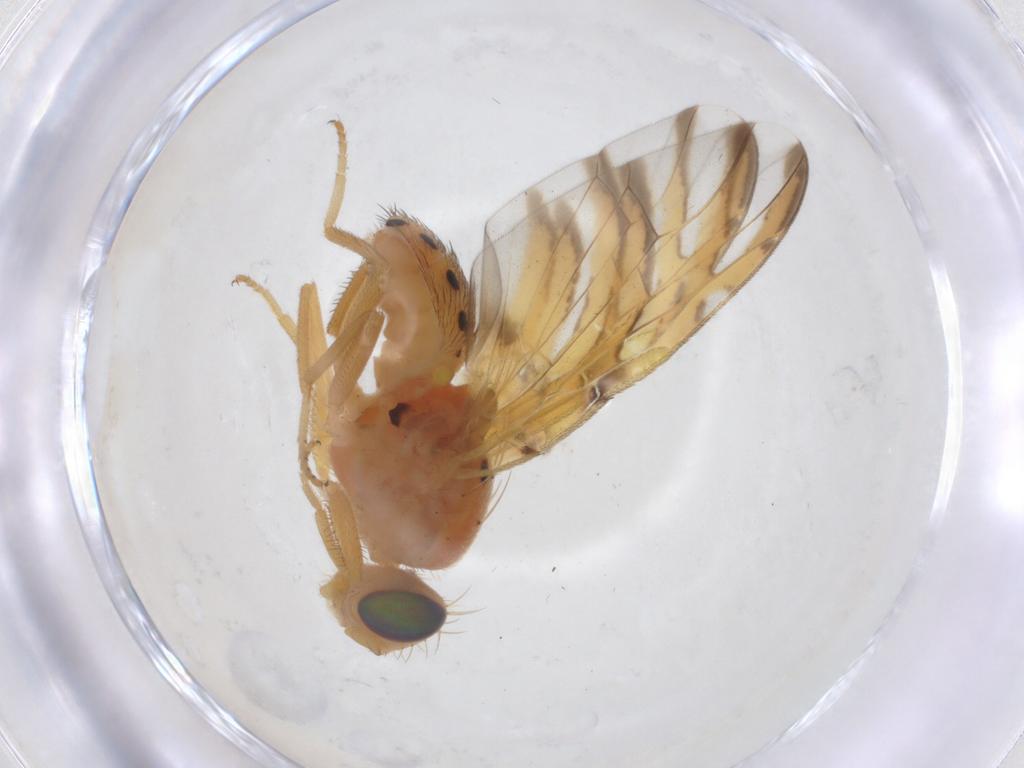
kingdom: Animalia
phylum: Arthropoda
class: Insecta
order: Diptera
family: Tephritidae
